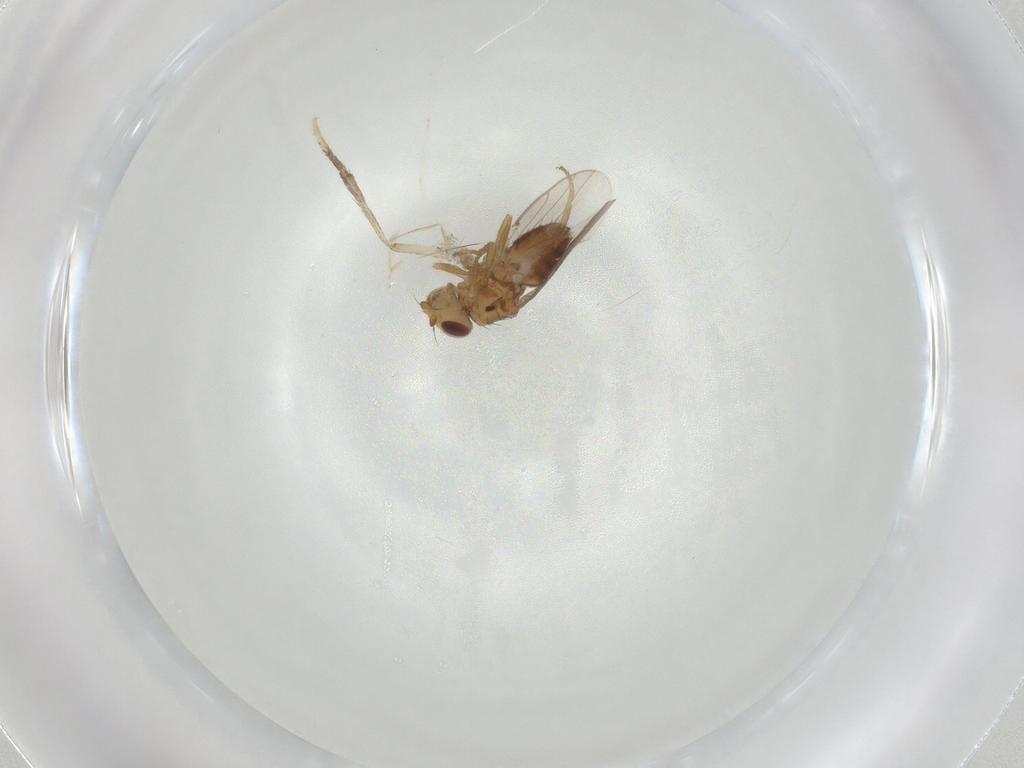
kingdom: Animalia
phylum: Arthropoda
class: Insecta
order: Diptera
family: Chloropidae
